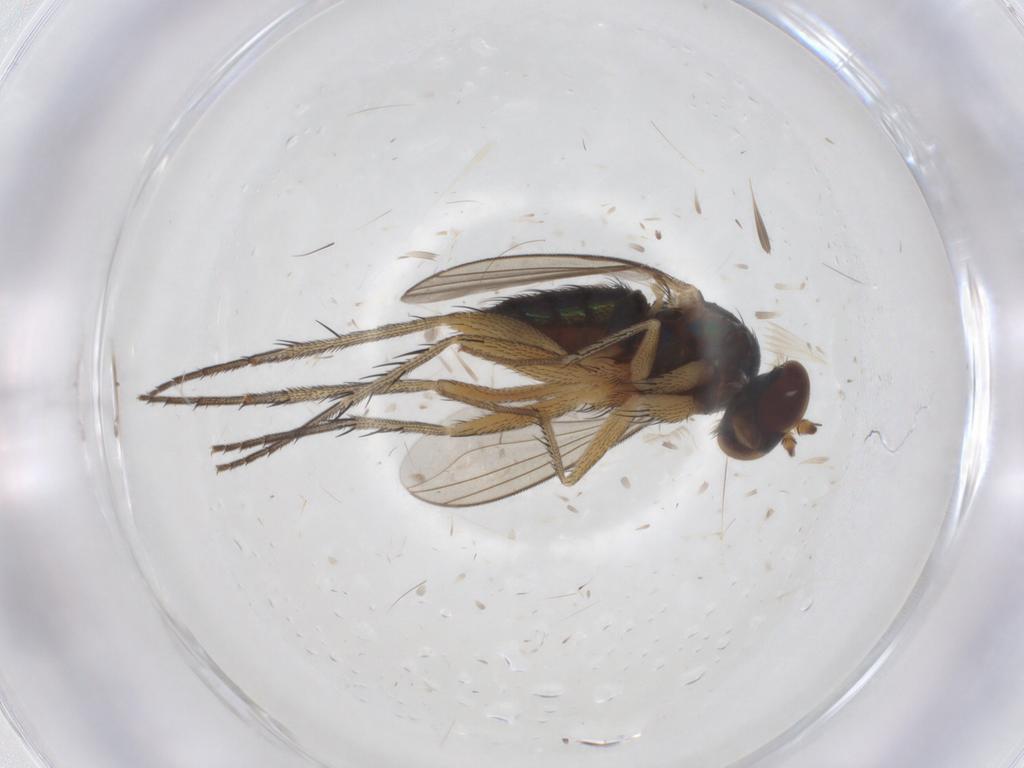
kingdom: Animalia
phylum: Arthropoda
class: Insecta
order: Diptera
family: Dolichopodidae
